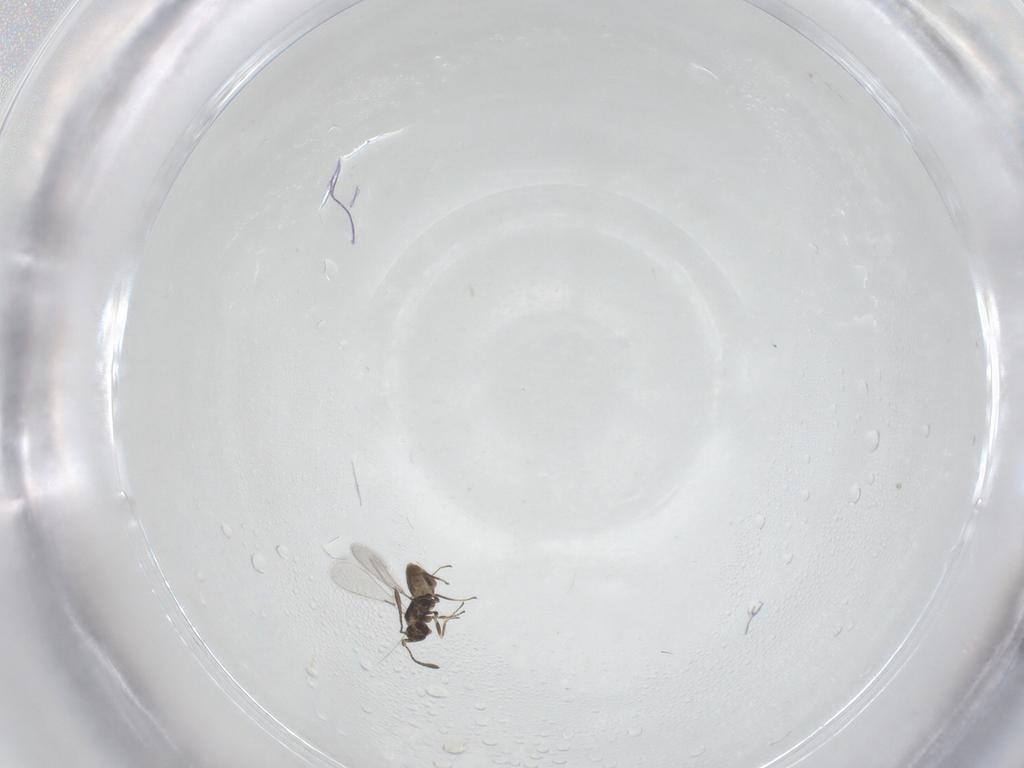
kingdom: Animalia
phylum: Arthropoda
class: Insecta
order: Hymenoptera
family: Mymaridae
